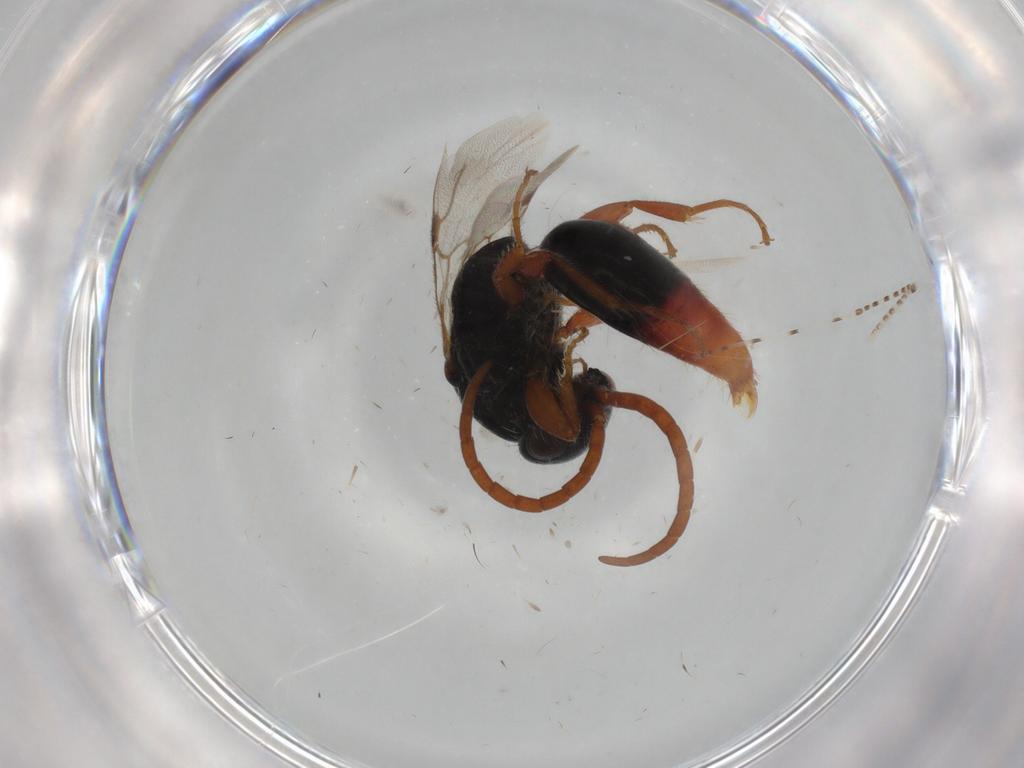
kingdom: Animalia
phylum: Arthropoda
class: Insecta
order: Hymenoptera
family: Bethylidae
